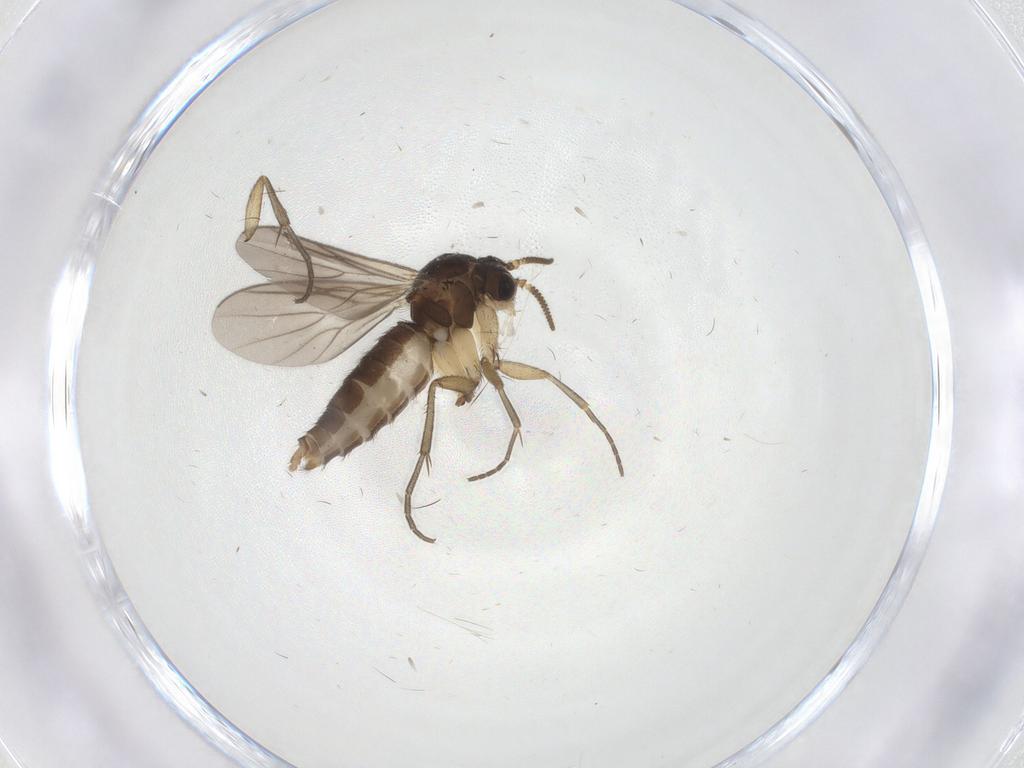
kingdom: Animalia
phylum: Arthropoda
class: Insecta
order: Diptera
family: Mycetophilidae
